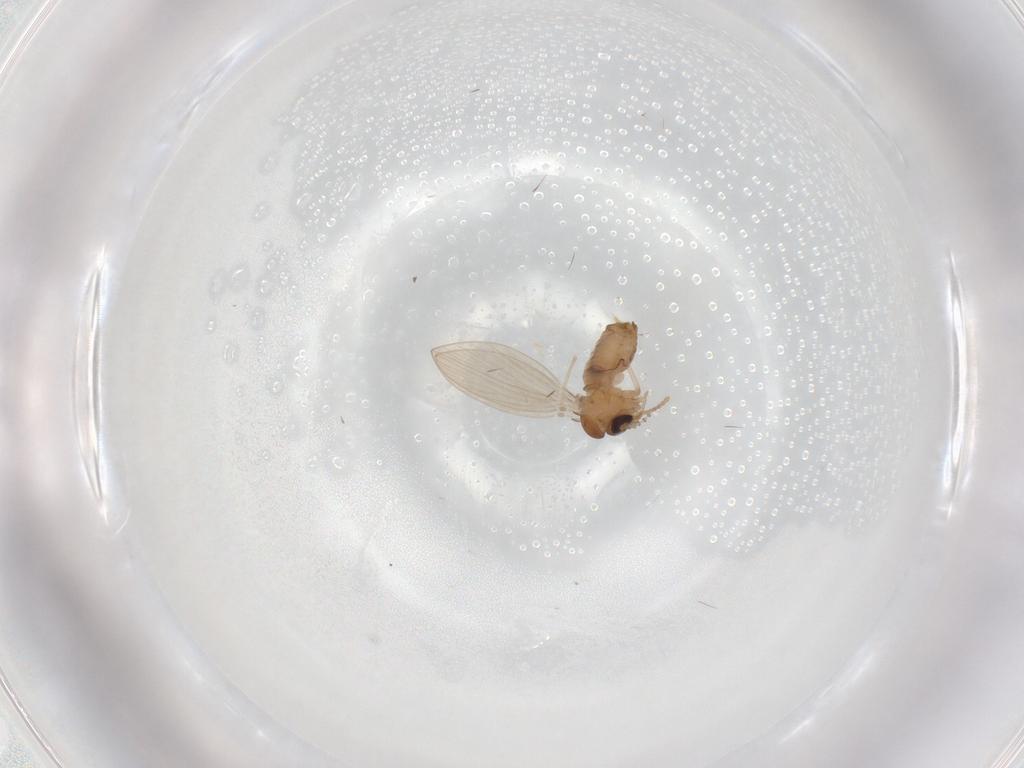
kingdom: Animalia
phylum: Arthropoda
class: Insecta
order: Diptera
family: Psychodidae
